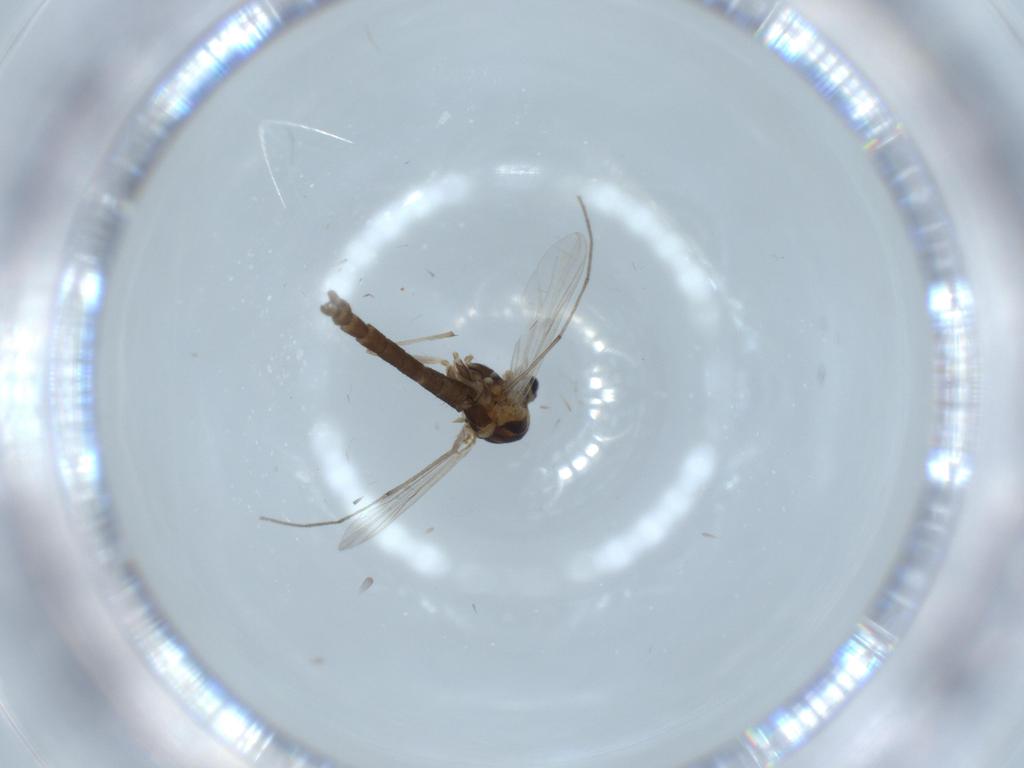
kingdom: Animalia
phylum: Arthropoda
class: Insecta
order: Diptera
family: Chironomidae
